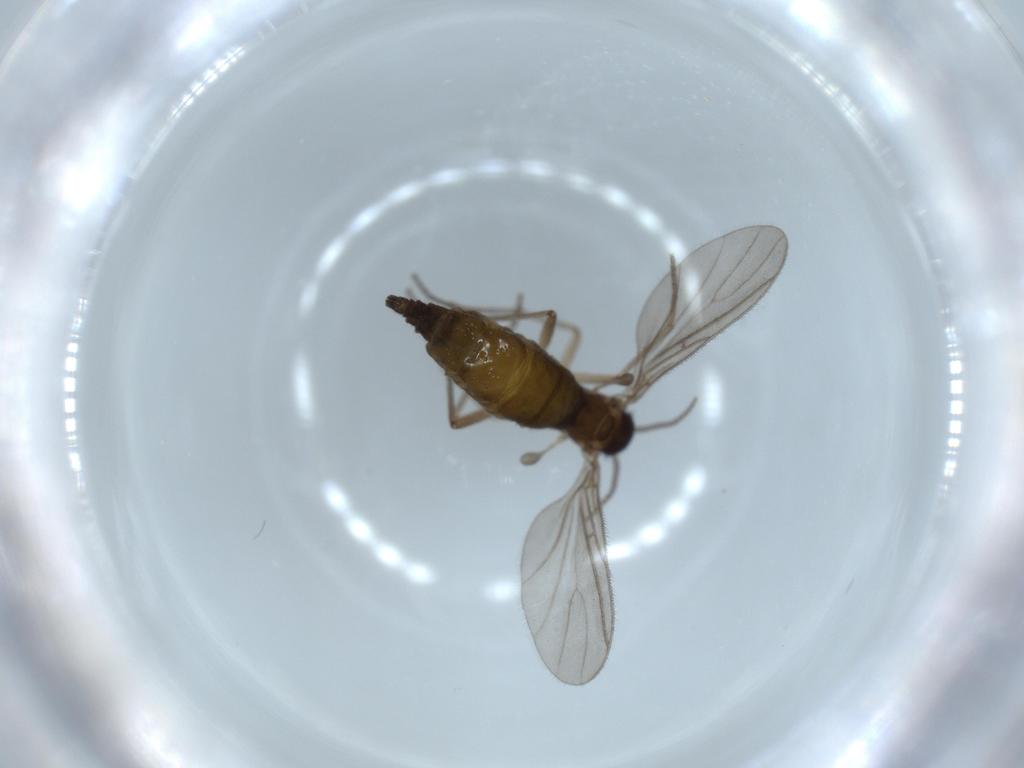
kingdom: Animalia
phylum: Arthropoda
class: Insecta
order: Diptera
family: Sciaridae
